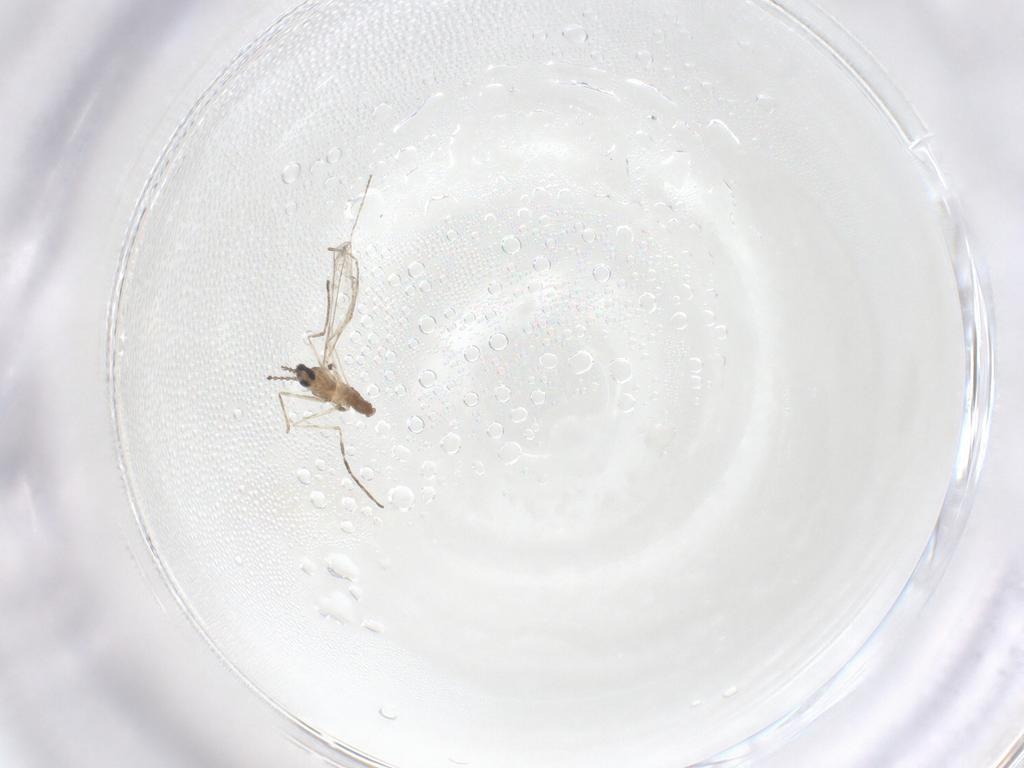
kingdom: Animalia
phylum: Arthropoda
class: Insecta
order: Diptera
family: Cecidomyiidae
